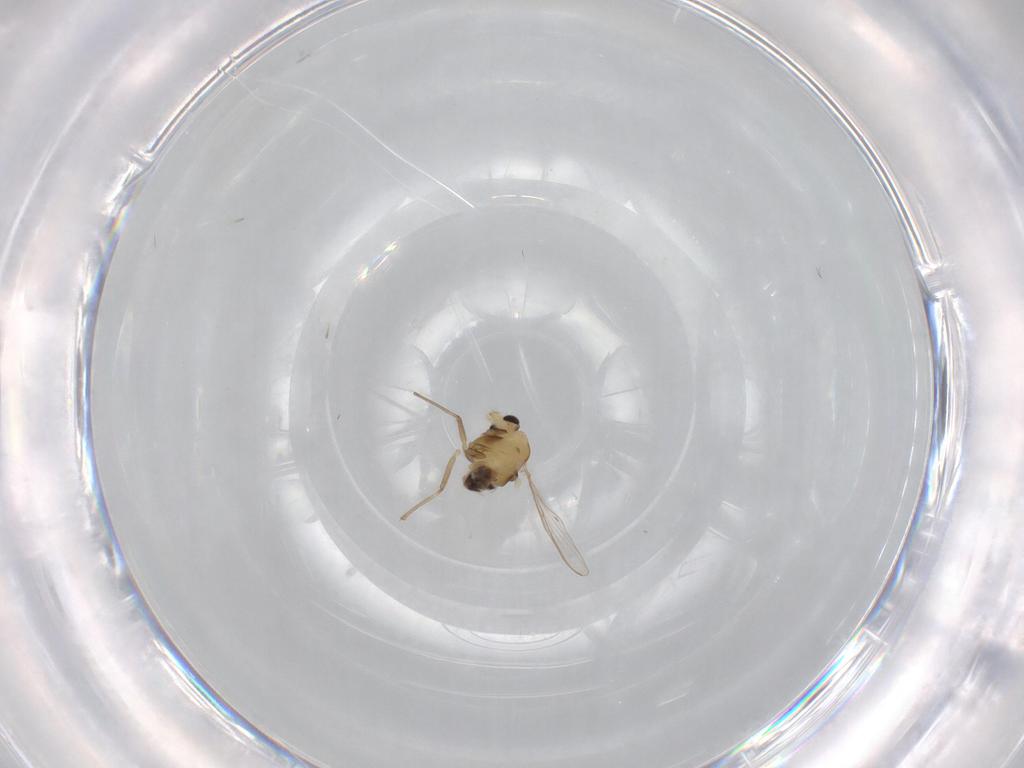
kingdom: Animalia
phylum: Arthropoda
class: Insecta
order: Diptera
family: Chironomidae
